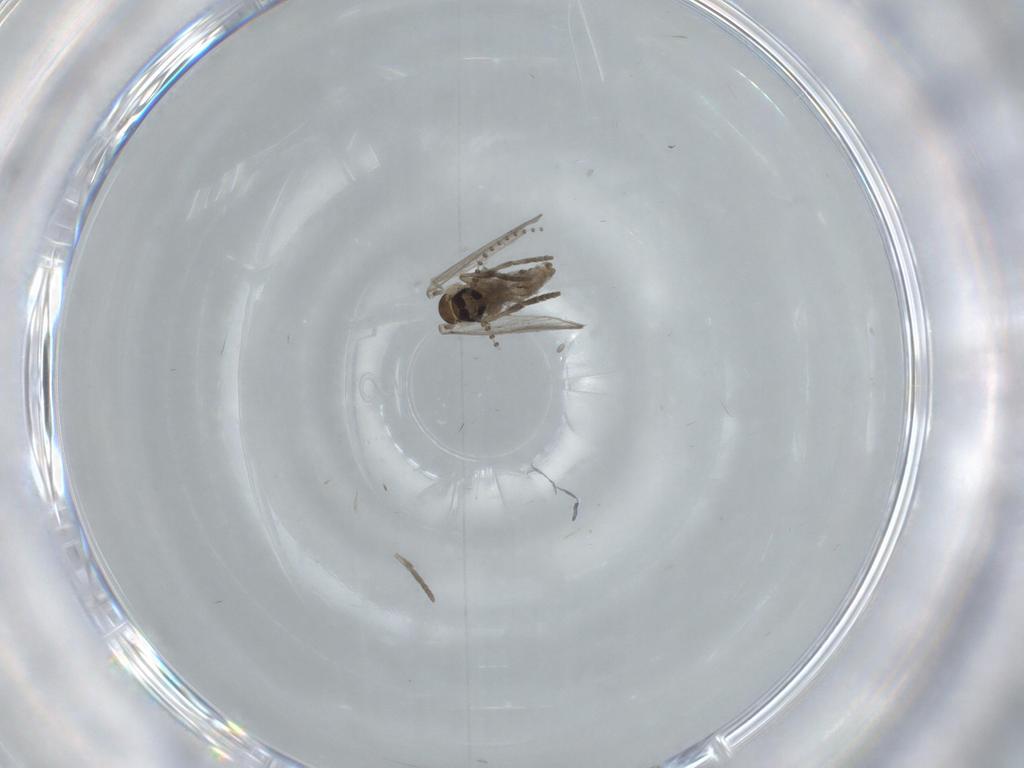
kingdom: Animalia
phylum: Arthropoda
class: Insecta
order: Diptera
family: Psychodidae
